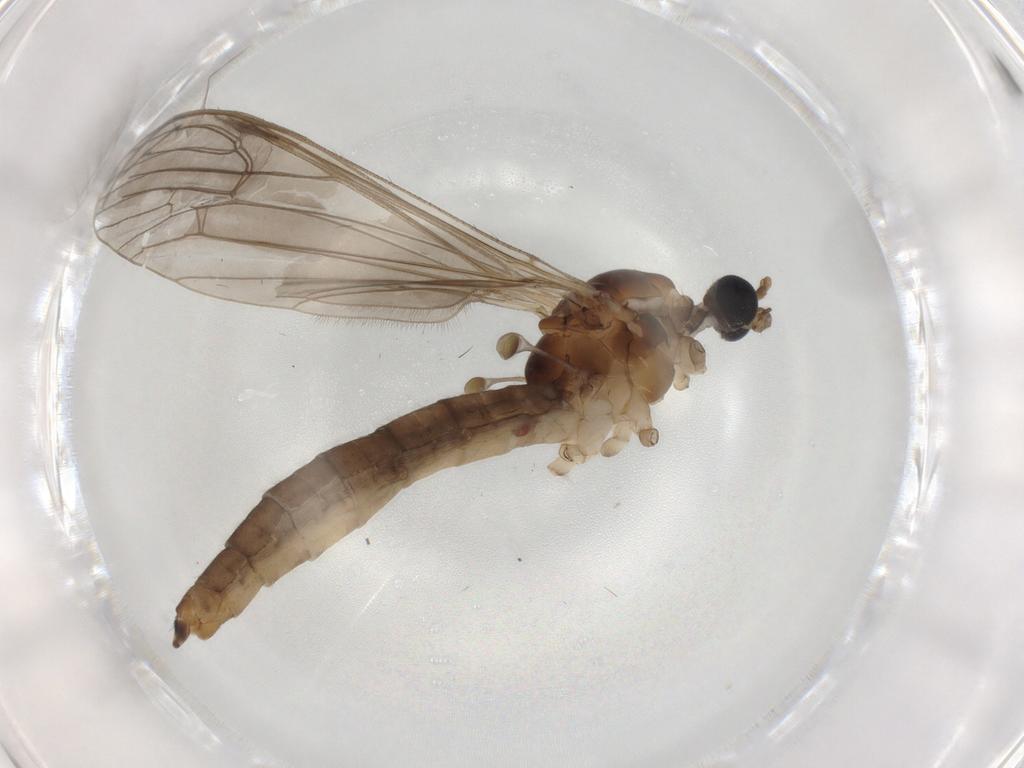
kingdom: Animalia
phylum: Arthropoda
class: Insecta
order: Diptera
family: Limoniidae
